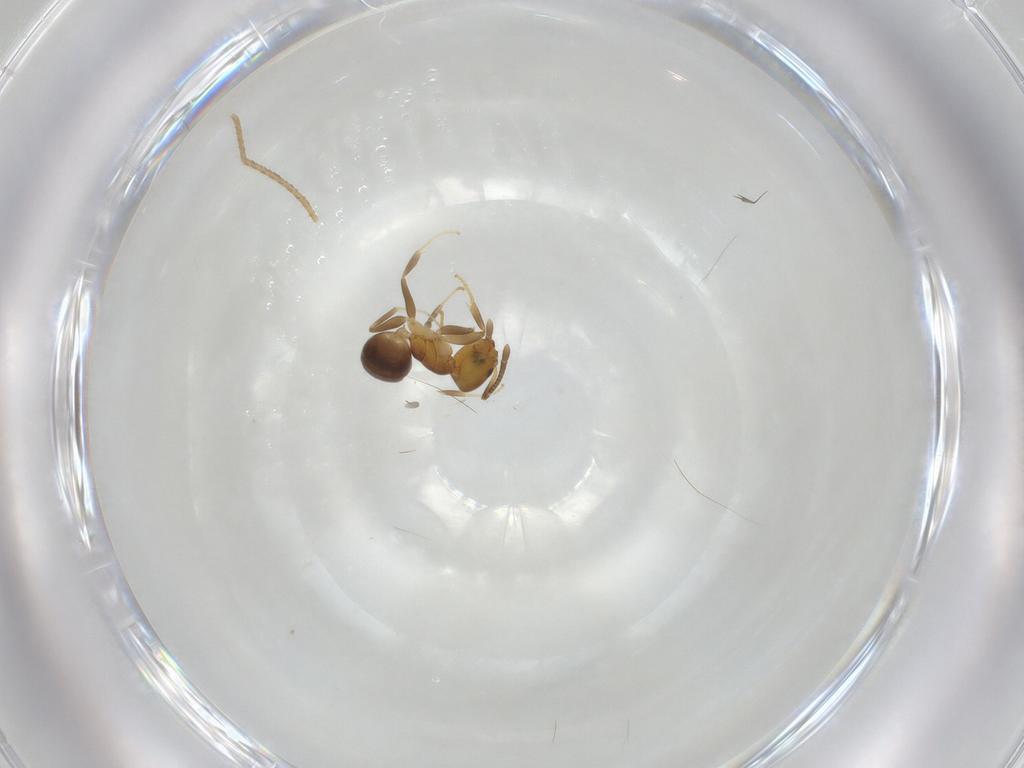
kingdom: Animalia
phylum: Arthropoda
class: Insecta
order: Hymenoptera
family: Formicidae
